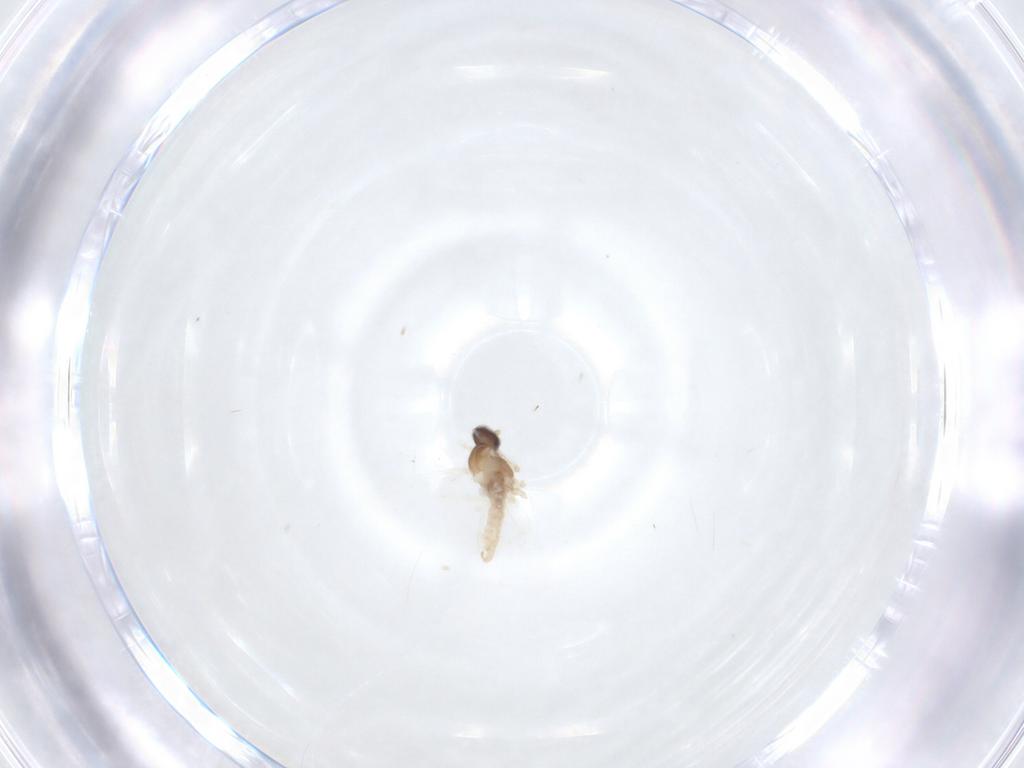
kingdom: Animalia
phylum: Arthropoda
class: Insecta
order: Diptera
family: Cecidomyiidae
